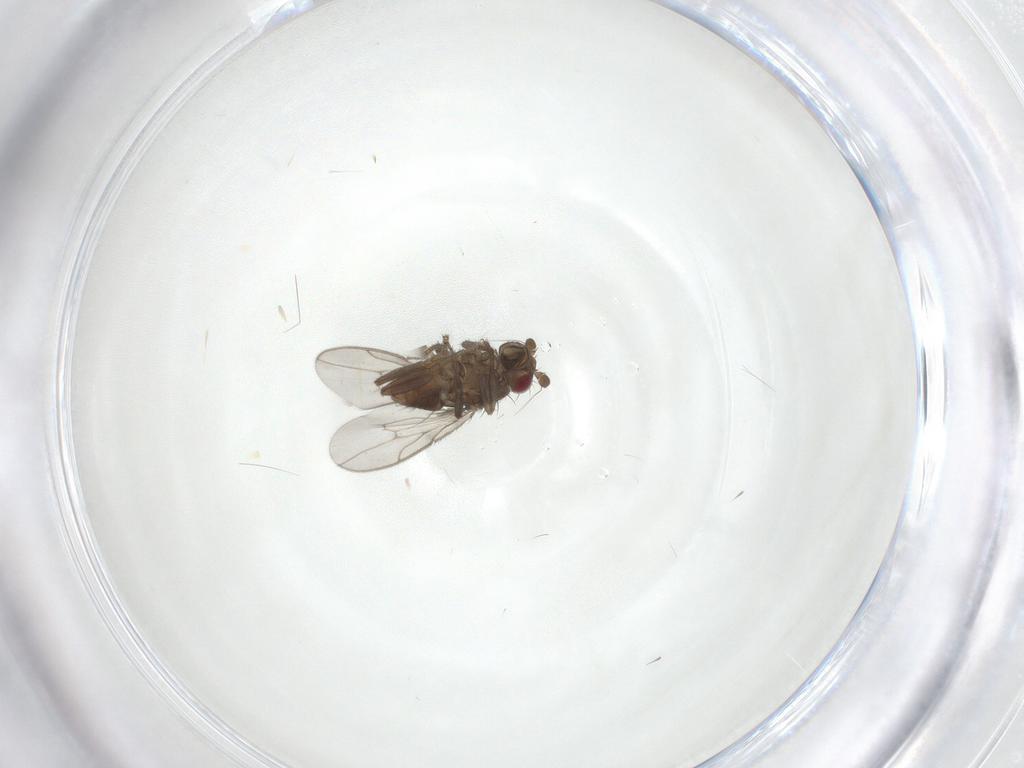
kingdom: Animalia
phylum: Arthropoda
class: Insecta
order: Diptera
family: Sphaeroceridae
